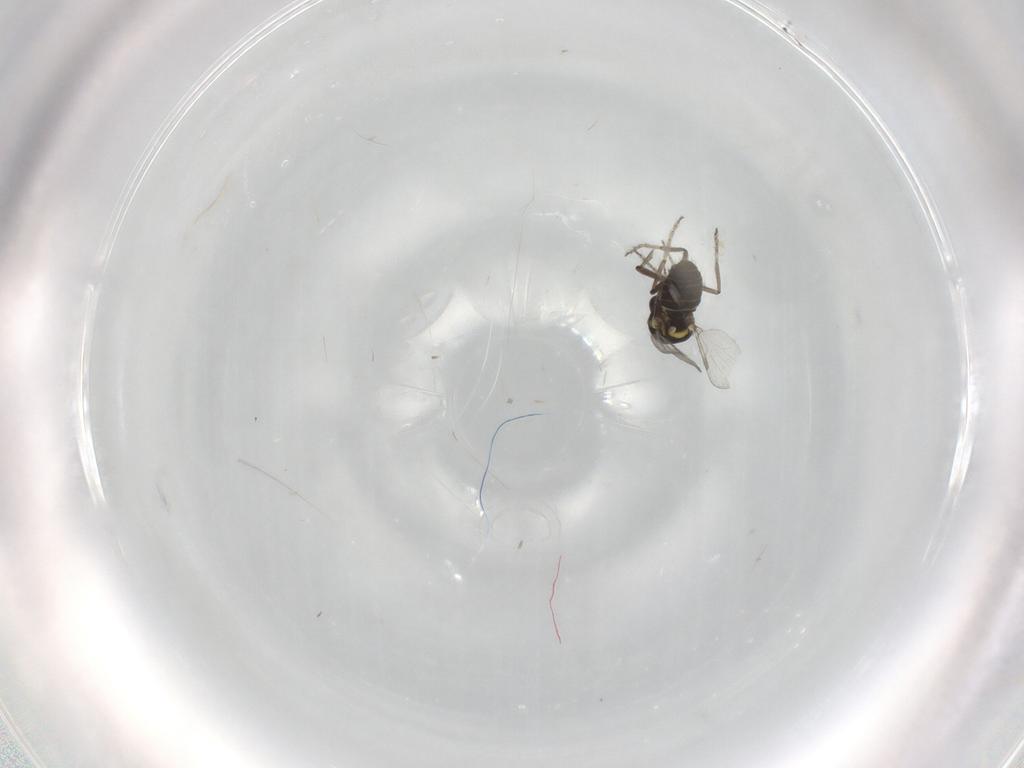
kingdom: Animalia
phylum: Arthropoda
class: Insecta
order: Diptera
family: Ceratopogonidae
